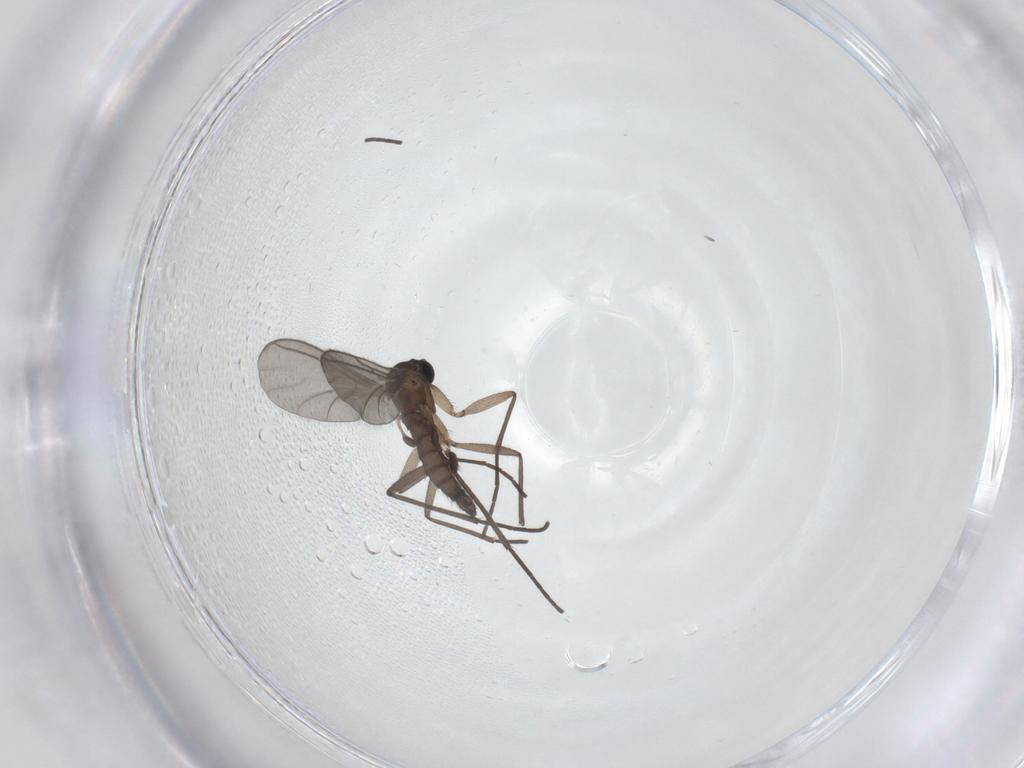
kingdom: Animalia
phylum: Arthropoda
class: Insecta
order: Diptera
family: Sciaridae
